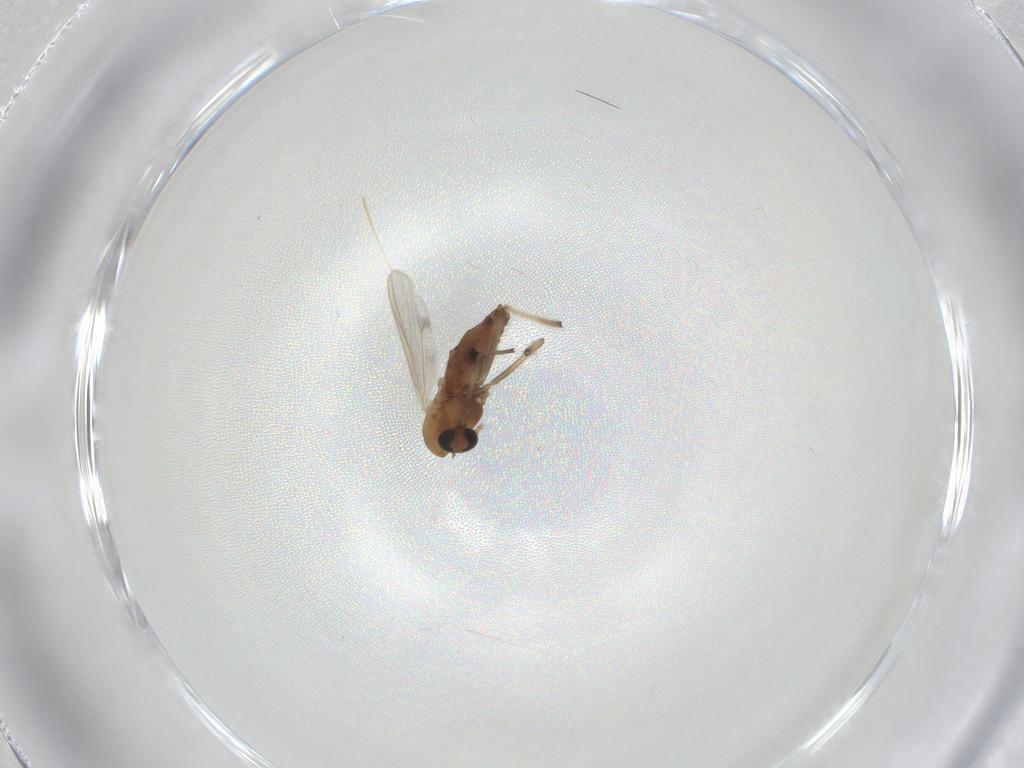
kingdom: Animalia
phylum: Arthropoda
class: Insecta
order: Diptera
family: Chironomidae
